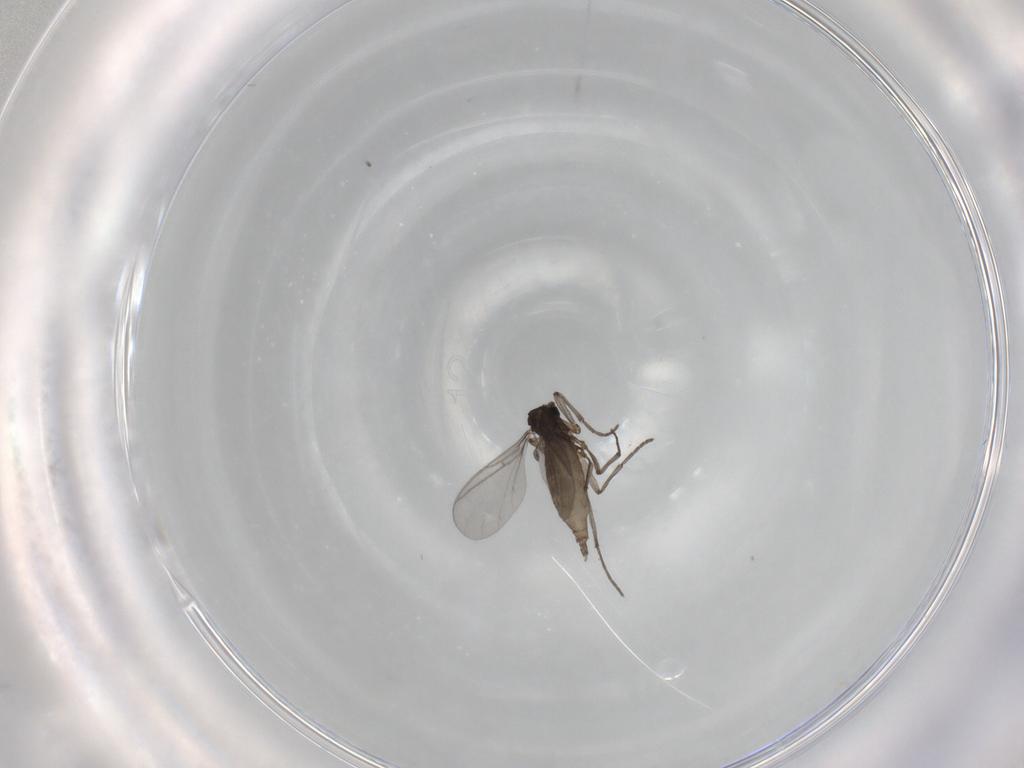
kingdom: Animalia
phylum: Arthropoda
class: Insecta
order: Diptera
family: Sciaridae
